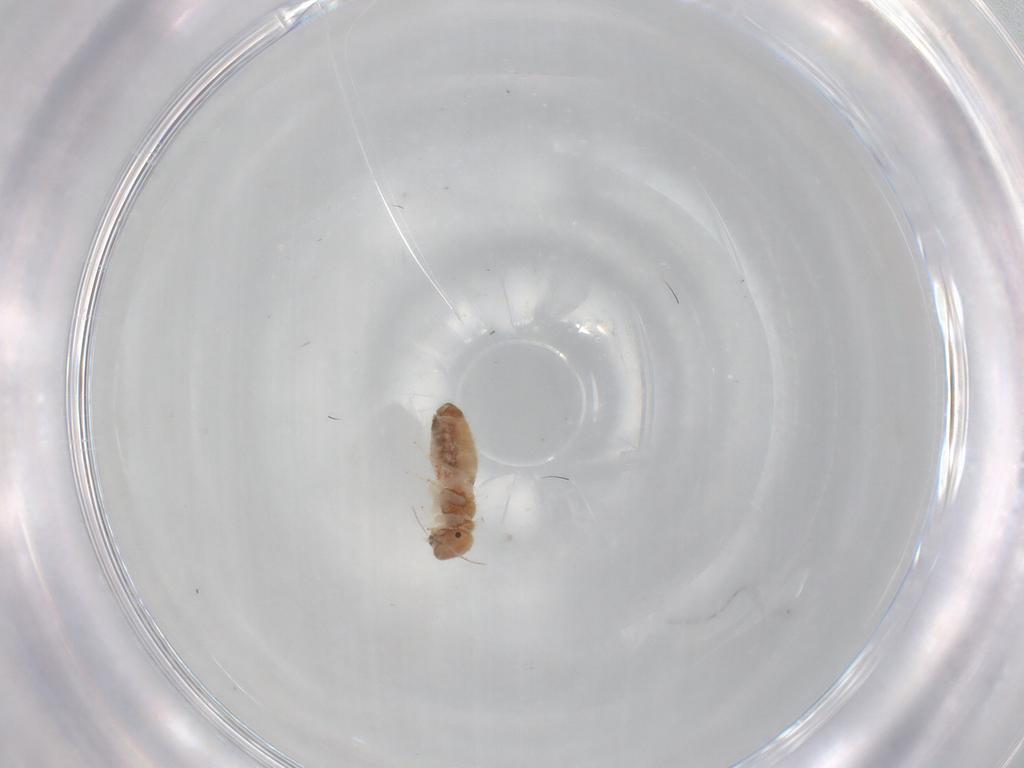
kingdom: Animalia
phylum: Arthropoda
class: Insecta
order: Psocodea
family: Archipsocidae
